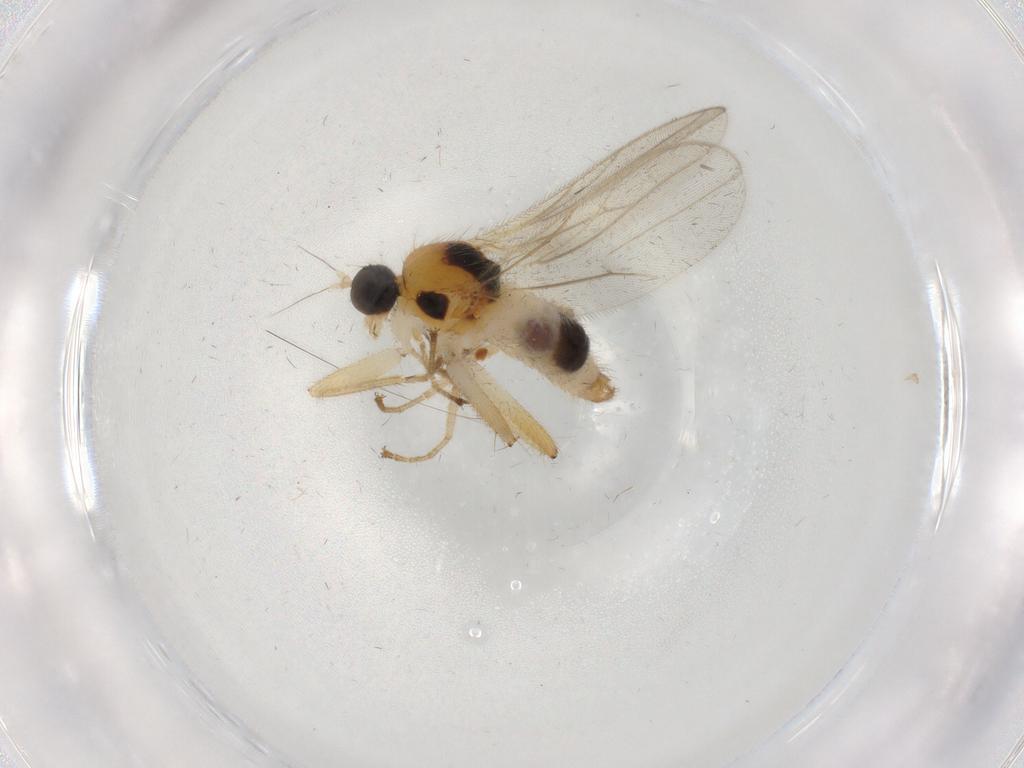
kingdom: Animalia
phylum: Arthropoda
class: Insecta
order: Diptera
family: Hybotidae
